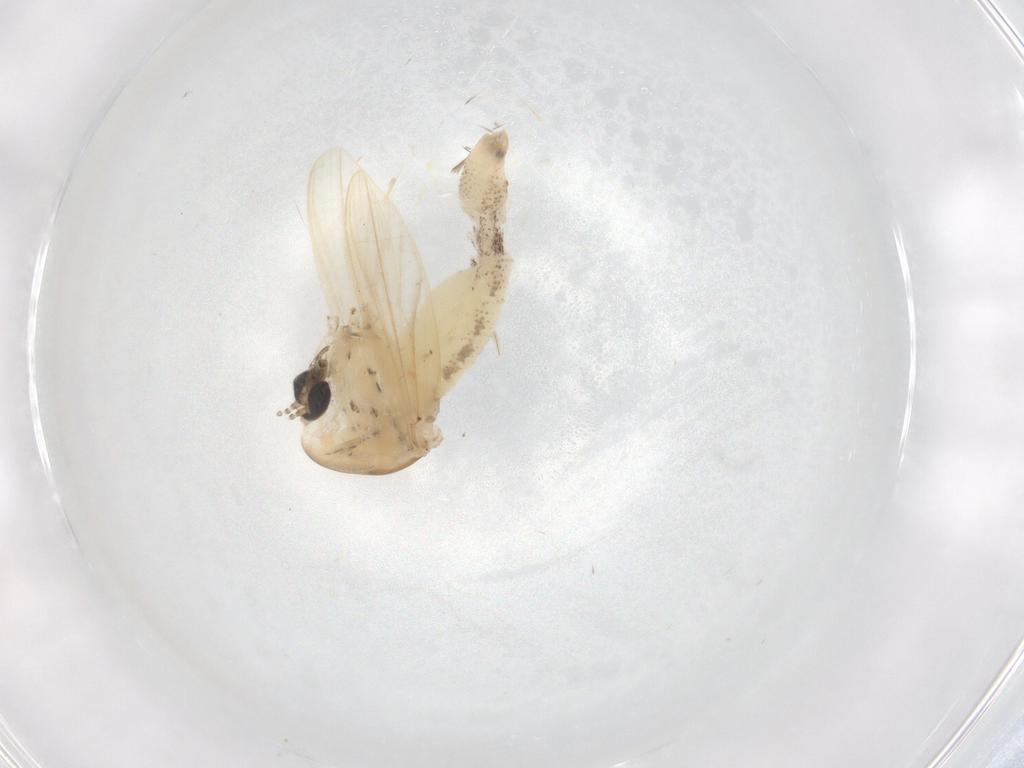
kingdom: Animalia
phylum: Arthropoda
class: Insecta
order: Diptera
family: Chaoboridae
